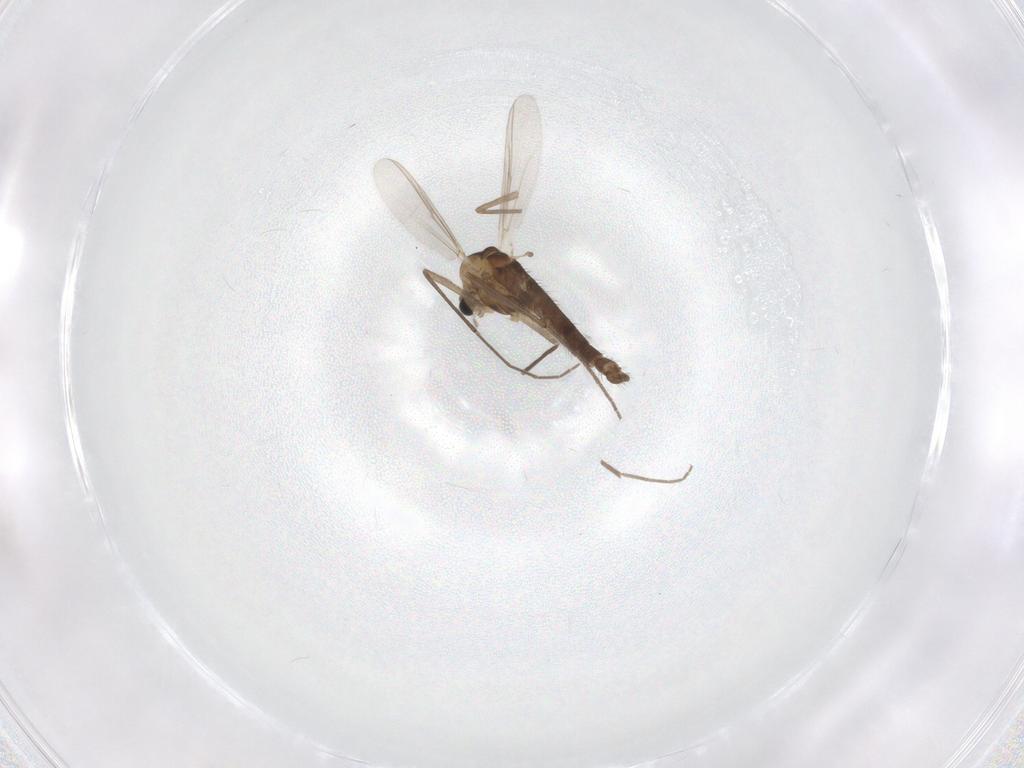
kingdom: Animalia
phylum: Arthropoda
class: Insecta
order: Diptera
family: Chironomidae
